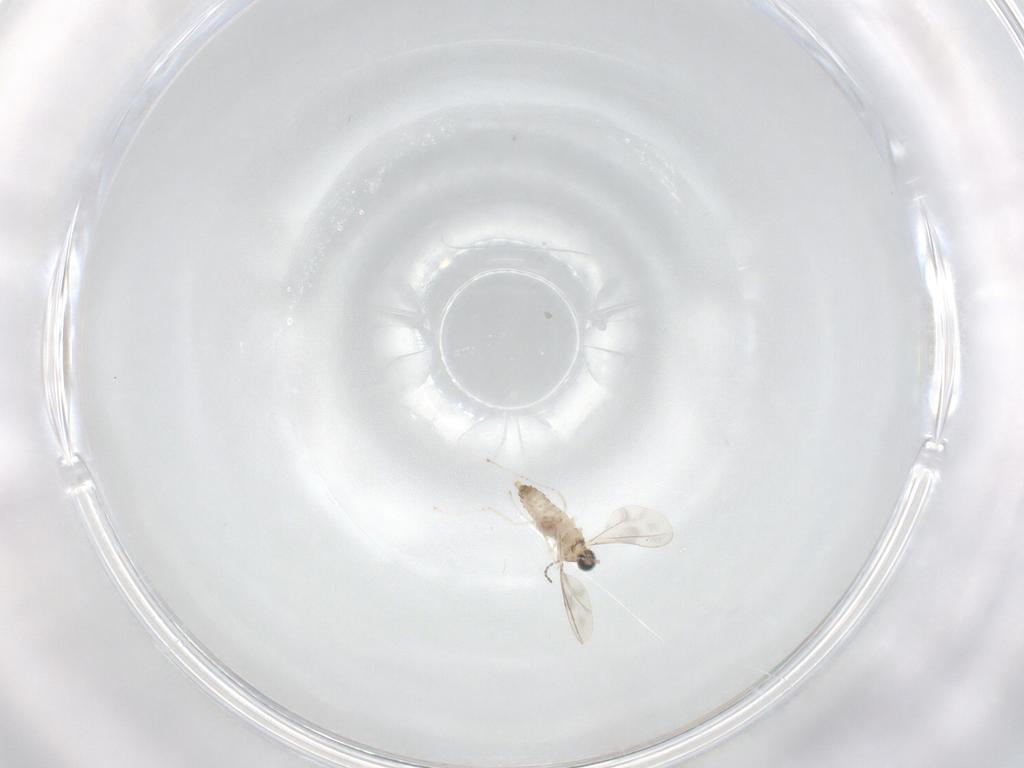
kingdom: Animalia
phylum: Arthropoda
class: Insecta
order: Diptera
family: Cecidomyiidae
